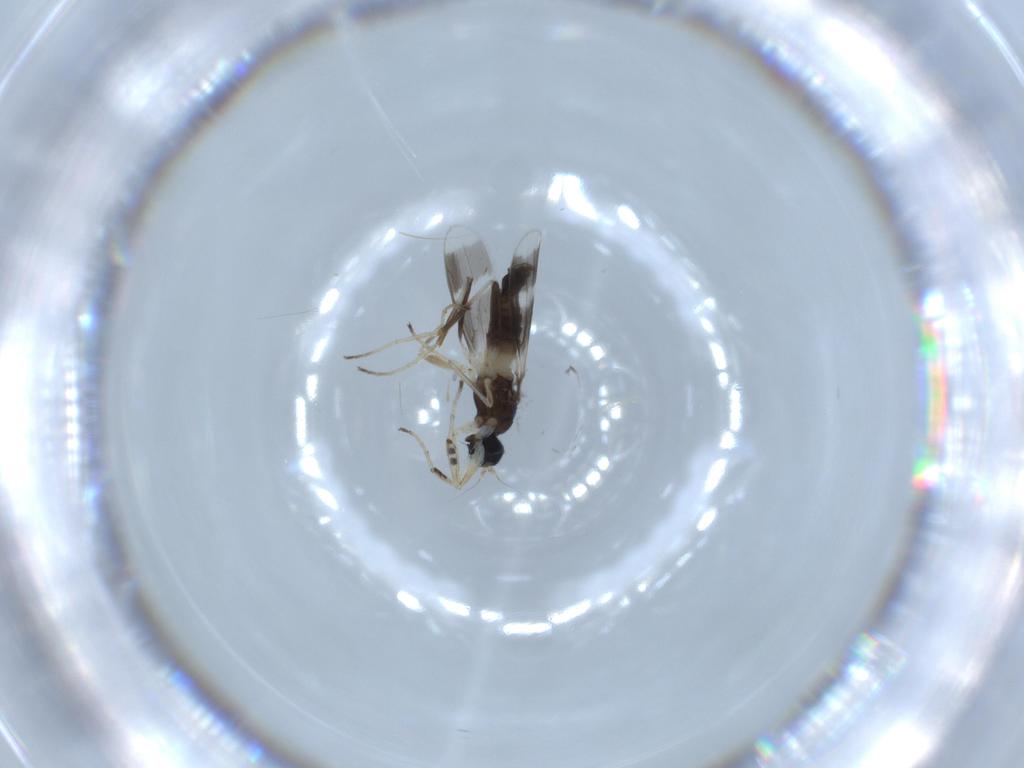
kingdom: Animalia
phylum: Arthropoda
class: Insecta
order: Diptera
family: Hybotidae
